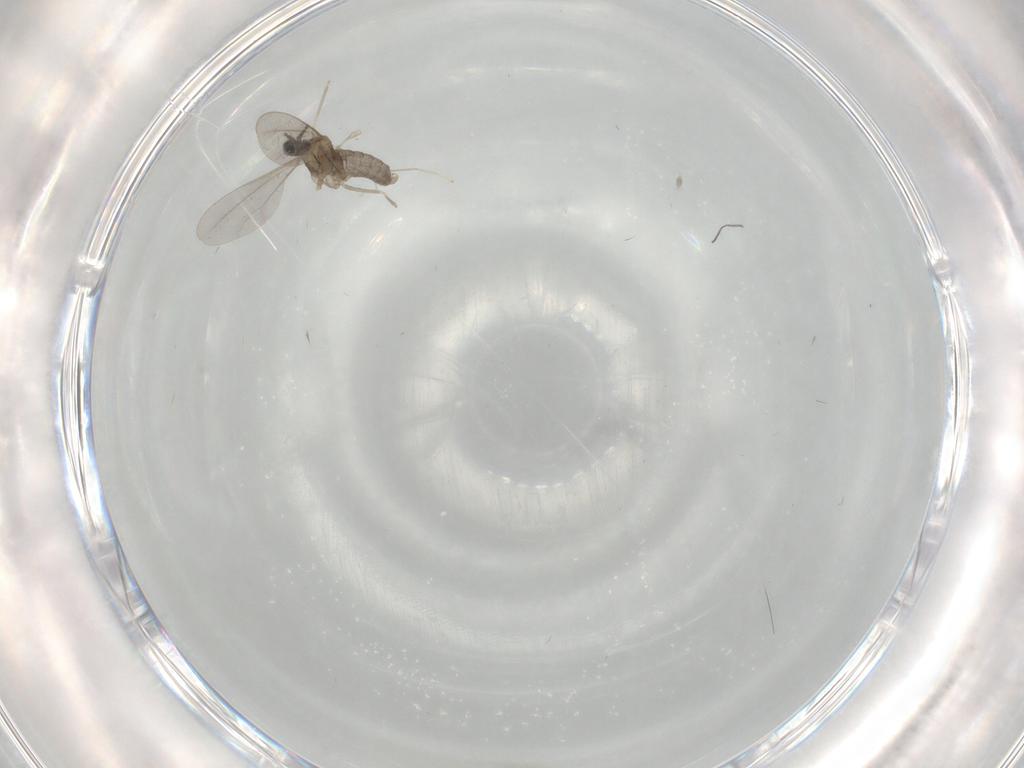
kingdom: Animalia
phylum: Arthropoda
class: Insecta
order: Diptera
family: Cecidomyiidae
